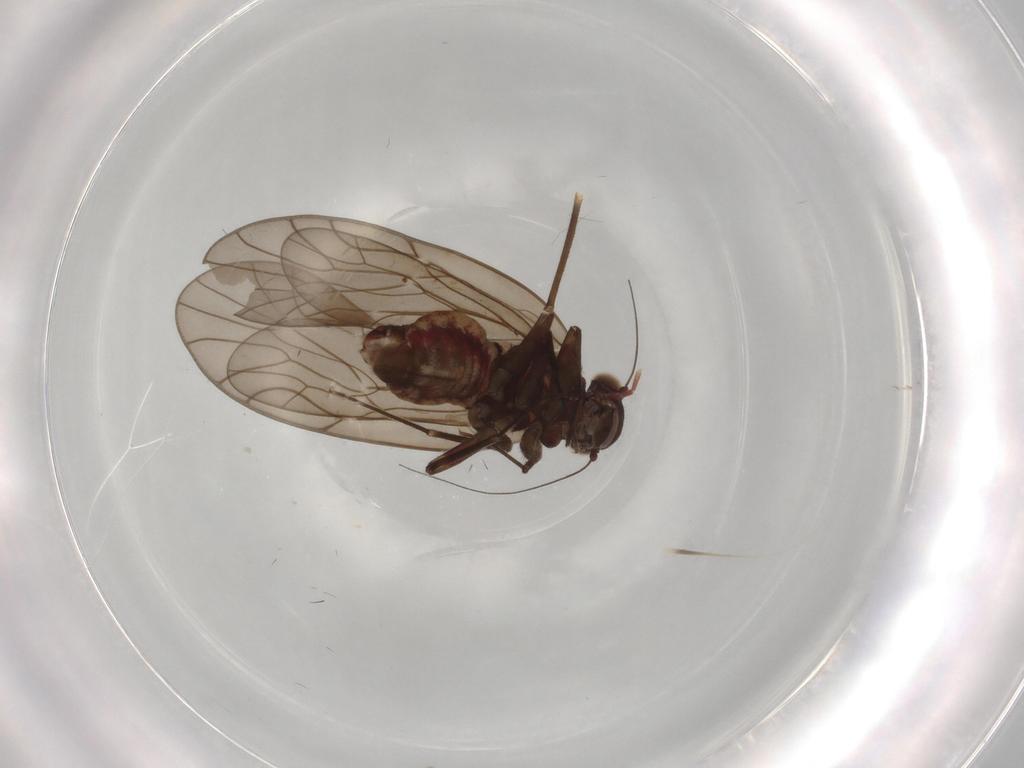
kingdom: Animalia
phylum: Arthropoda
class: Insecta
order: Psocodea
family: Philotarsidae
